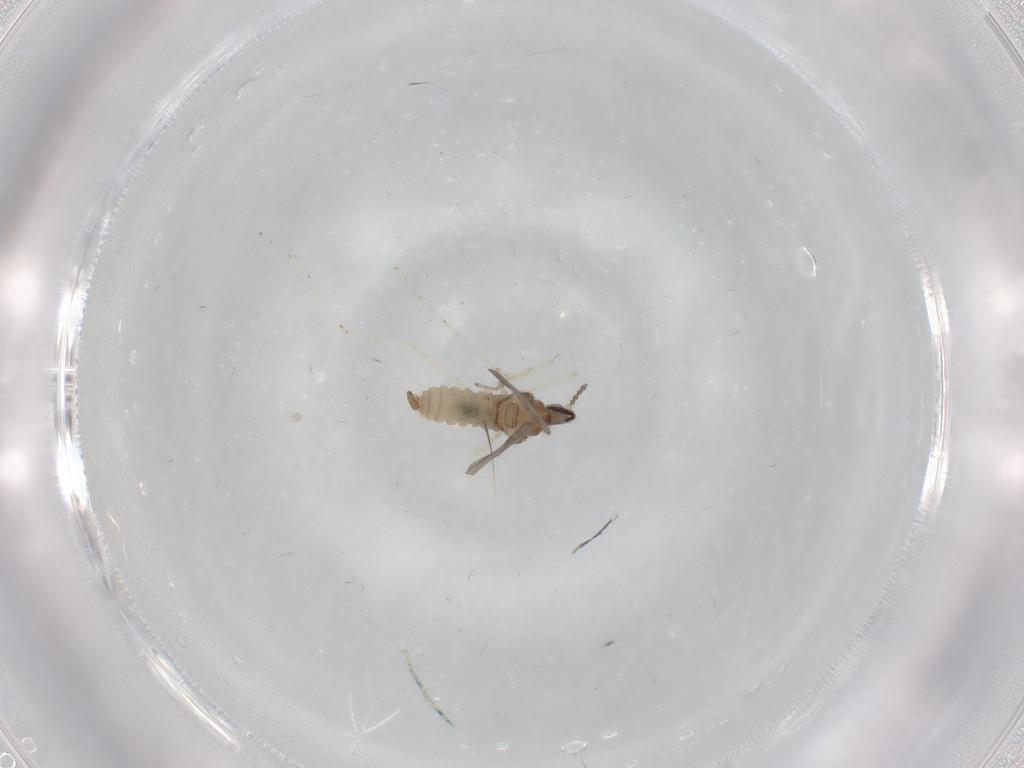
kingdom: Animalia
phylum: Arthropoda
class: Insecta
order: Diptera
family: Cecidomyiidae
